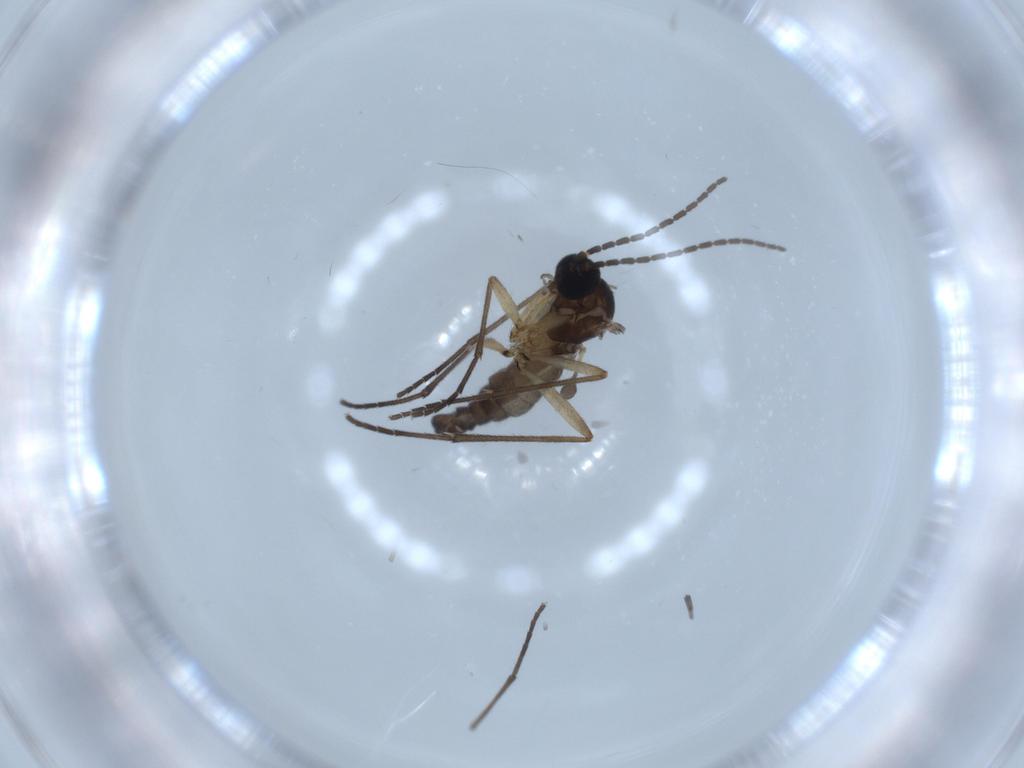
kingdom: Animalia
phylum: Arthropoda
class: Insecta
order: Diptera
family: Sciaridae
